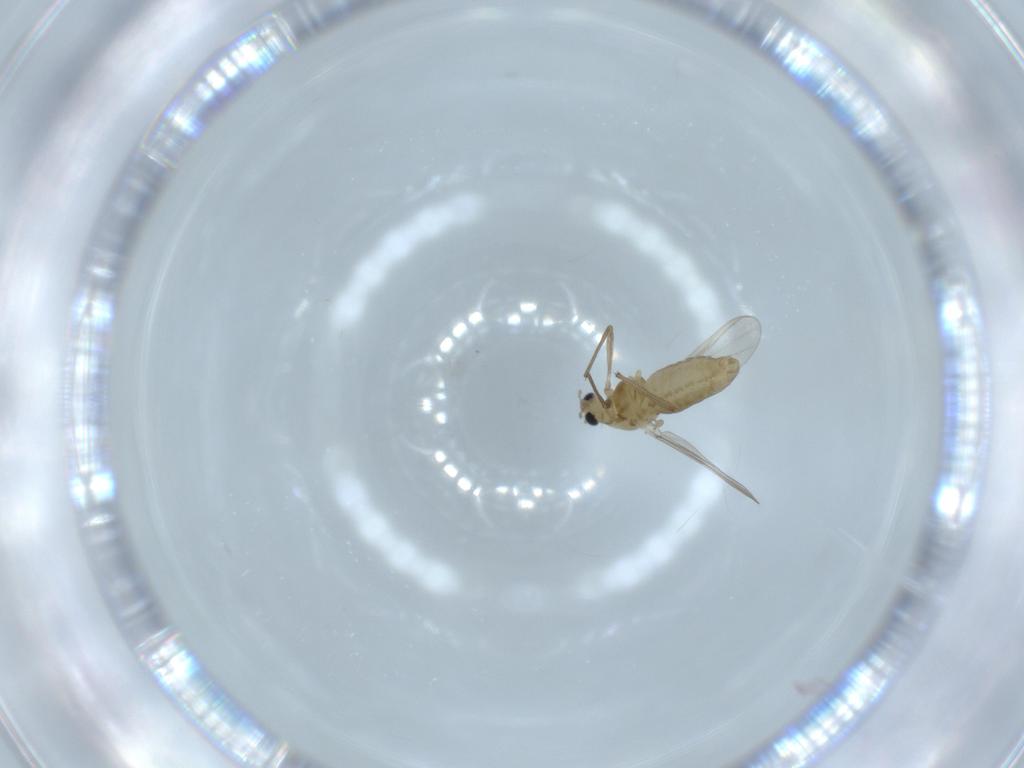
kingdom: Animalia
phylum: Arthropoda
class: Insecta
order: Diptera
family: Chironomidae
